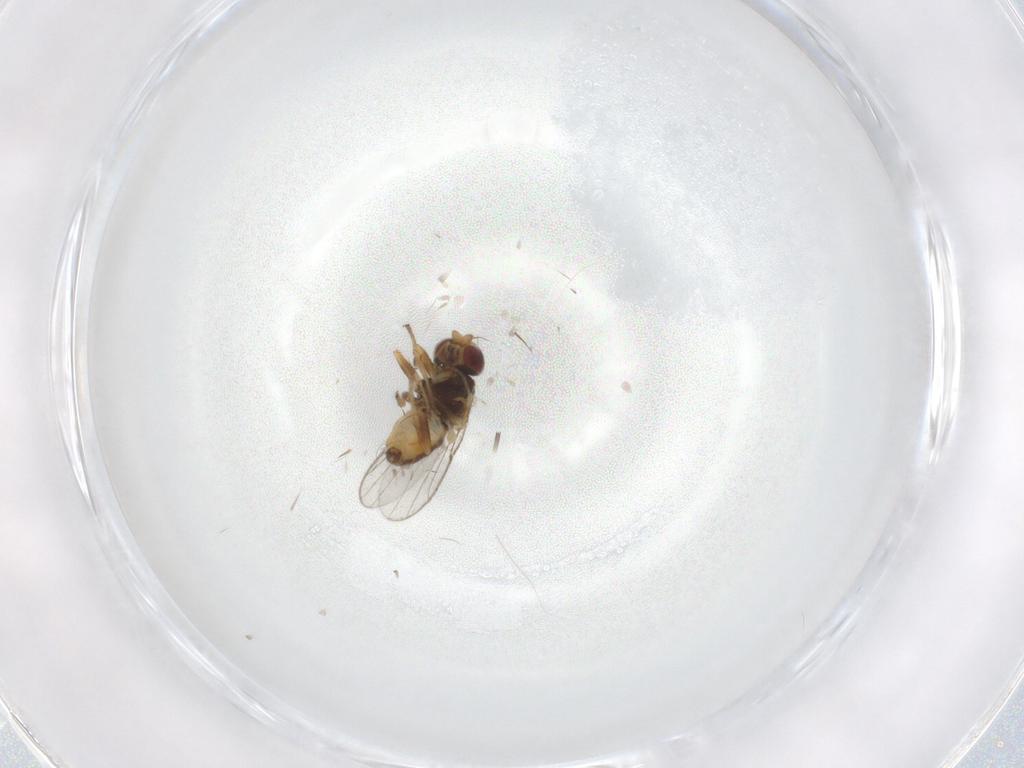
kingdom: Animalia
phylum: Arthropoda
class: Insecta
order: Diptera
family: Chloropidae
